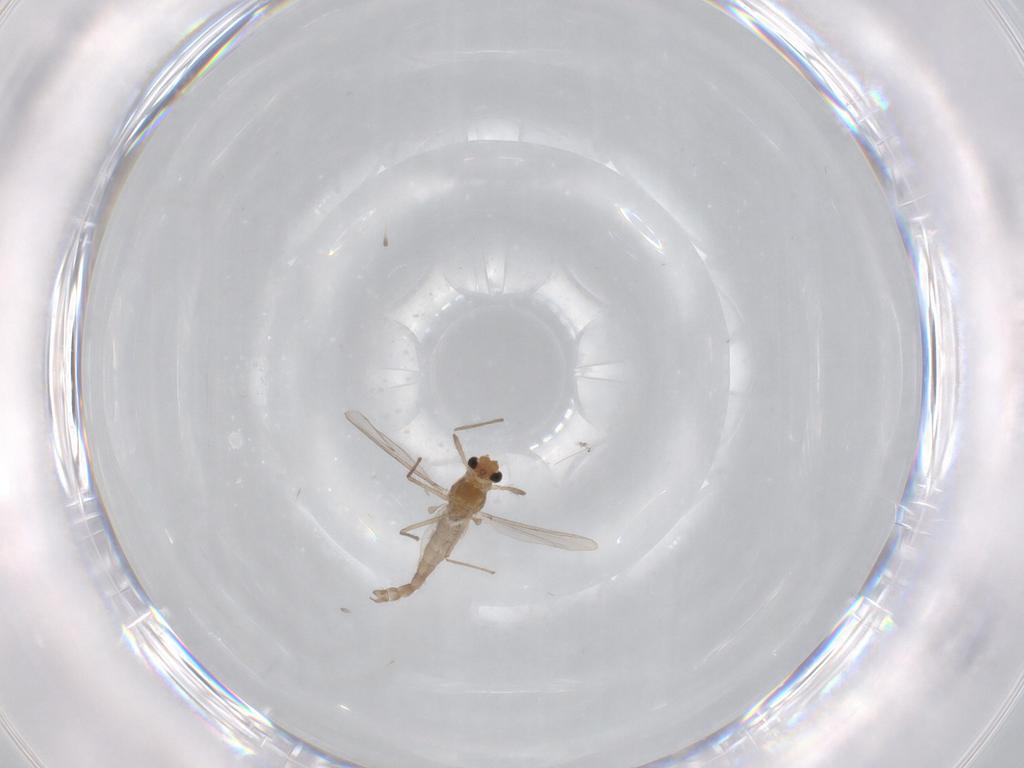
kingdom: Animalia
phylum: Arthropoda
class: Insecta
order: Diptera
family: Chironomidae
